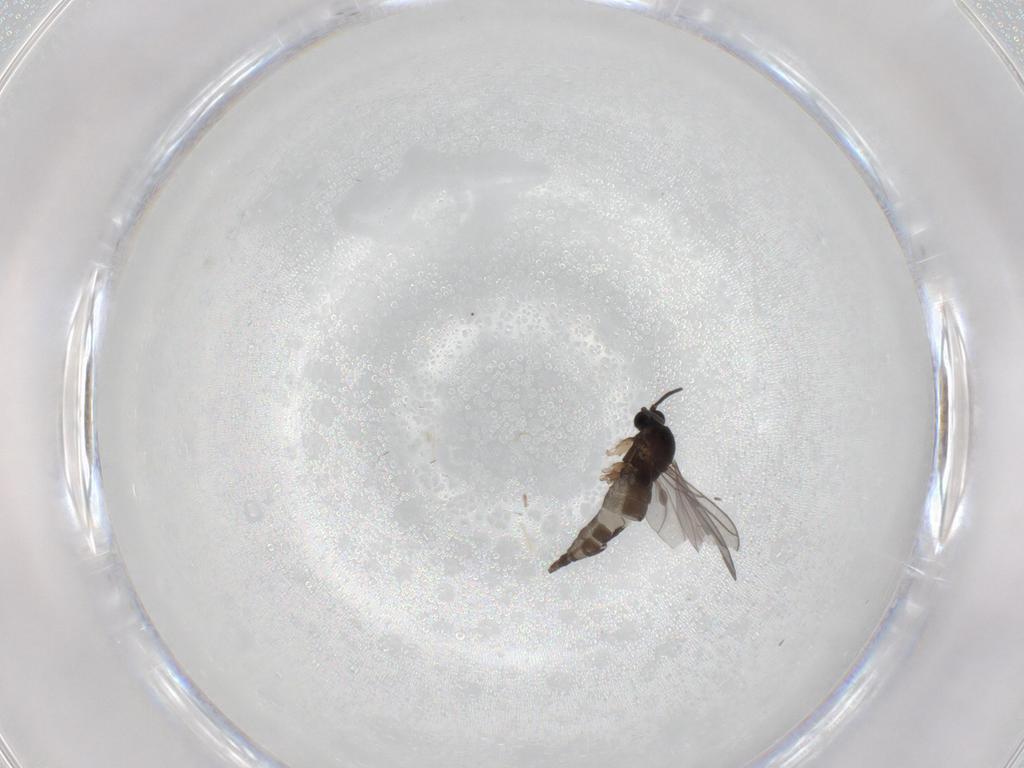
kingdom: Animalia
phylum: Arthropoda
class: Insecta
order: Diptera
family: Sciaridae
